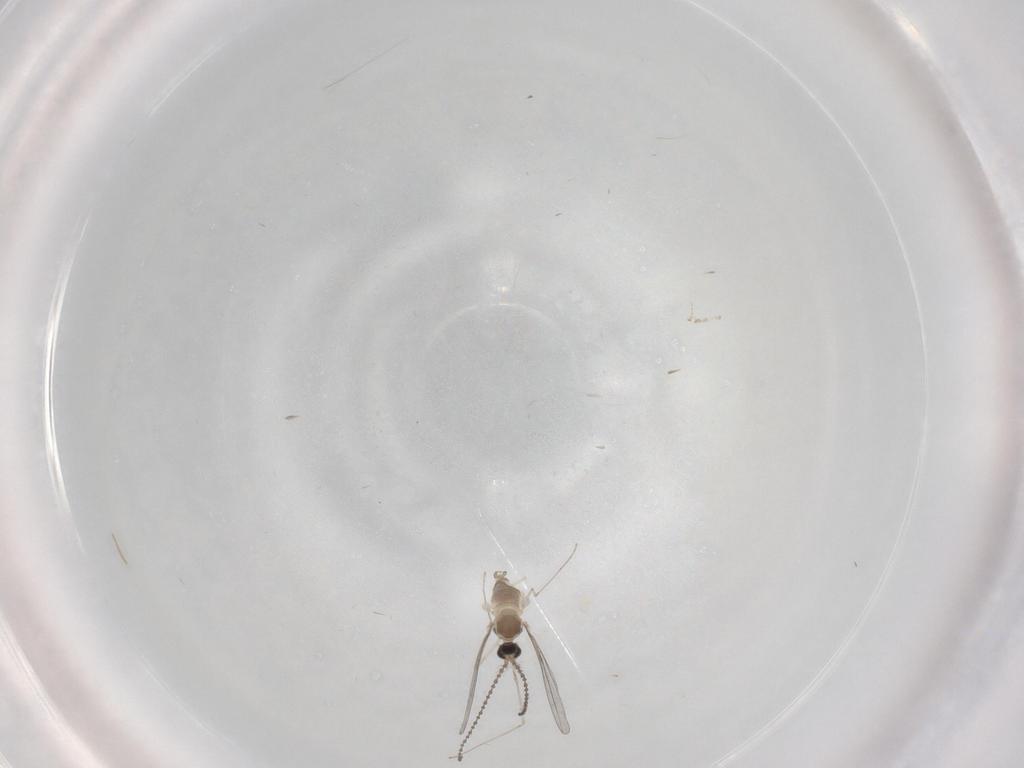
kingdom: Animalia
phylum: Arthropoda
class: Insecta
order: Diptera
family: Cecidomyiidae
